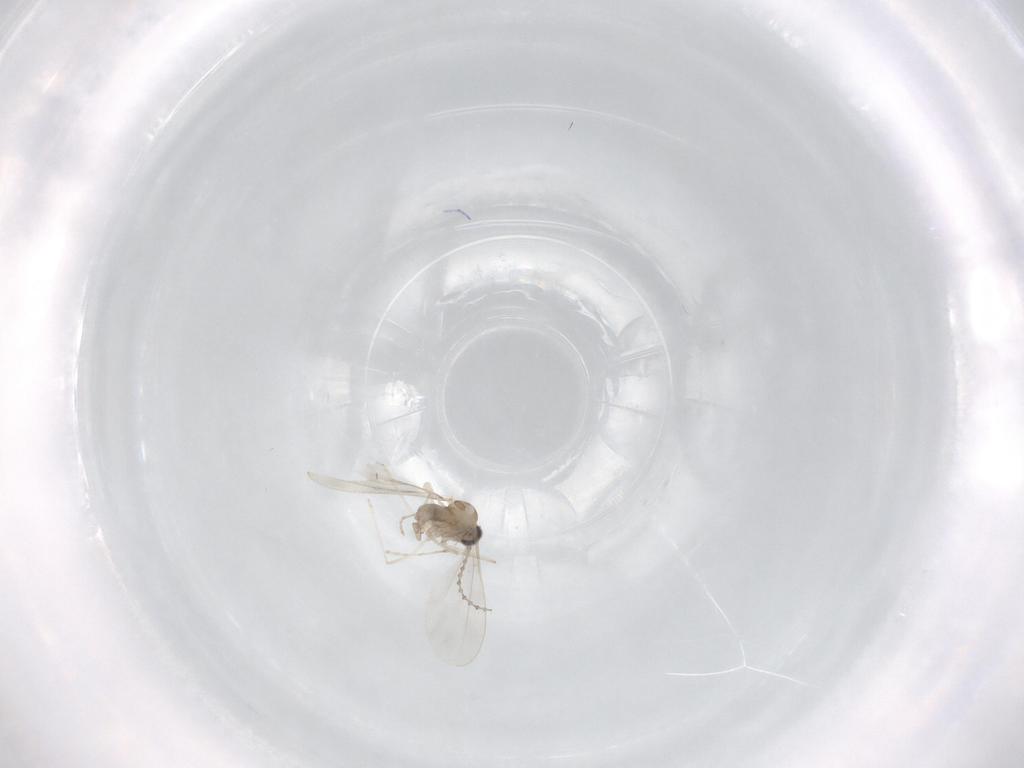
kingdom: Animalia
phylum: Arthropoda
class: Insecta
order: Diptera
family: Cecidomyiidae
